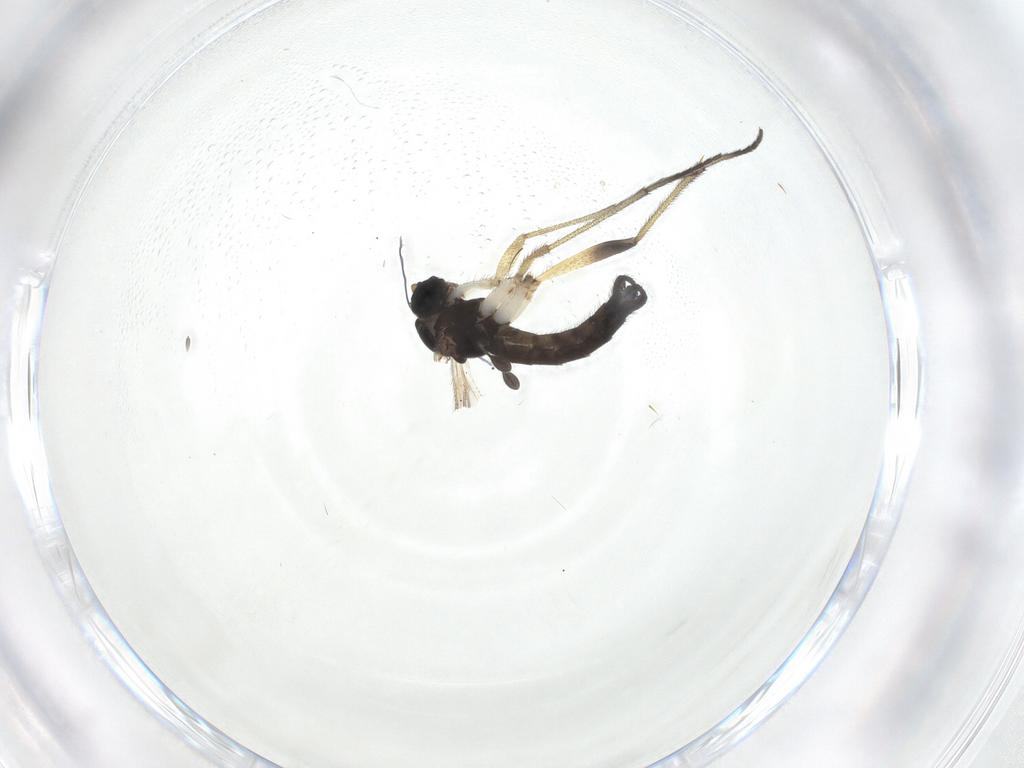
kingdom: Animalia
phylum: Arthropoda
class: Insecta
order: Diptera
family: Sciaridae
